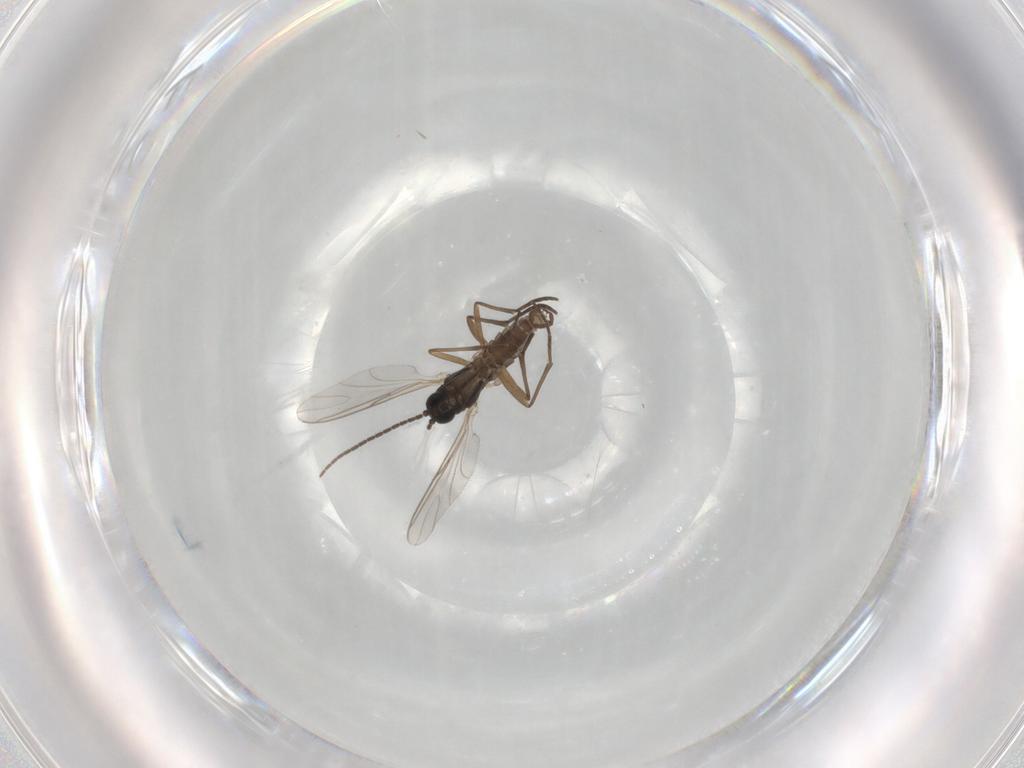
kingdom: Animalia
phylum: Arthropoda
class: Insecta
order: Diptera
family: Sciaridae
